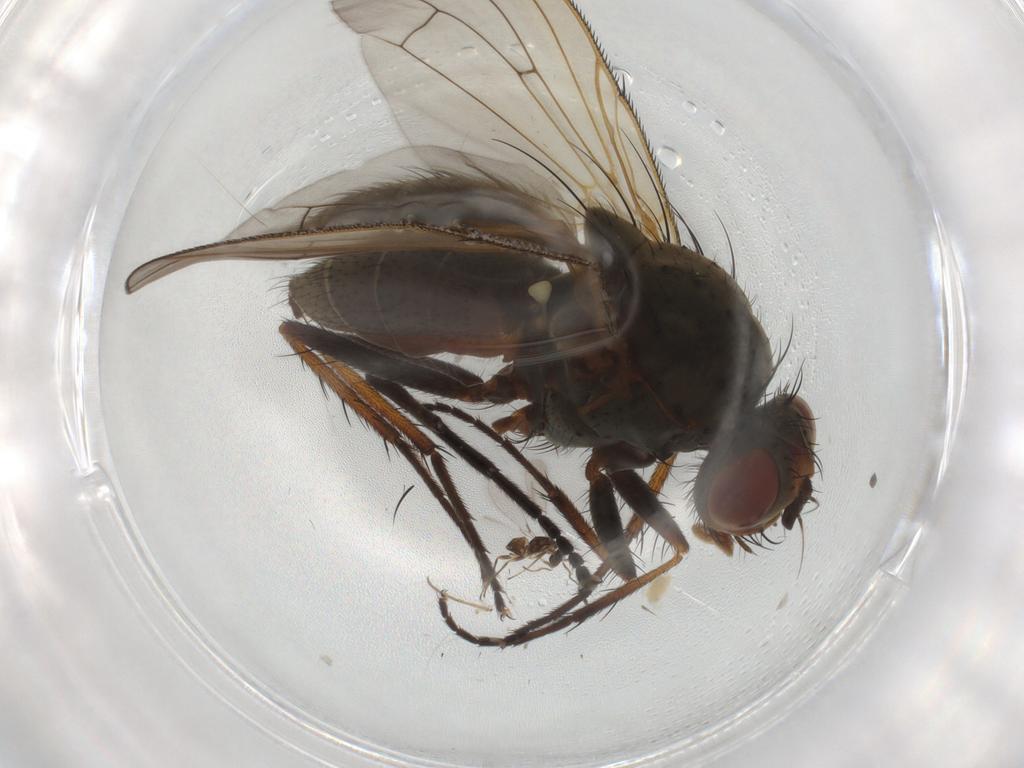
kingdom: Animalia
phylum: Arthropoda
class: Insecta
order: Diptera
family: Anthomyiidae
